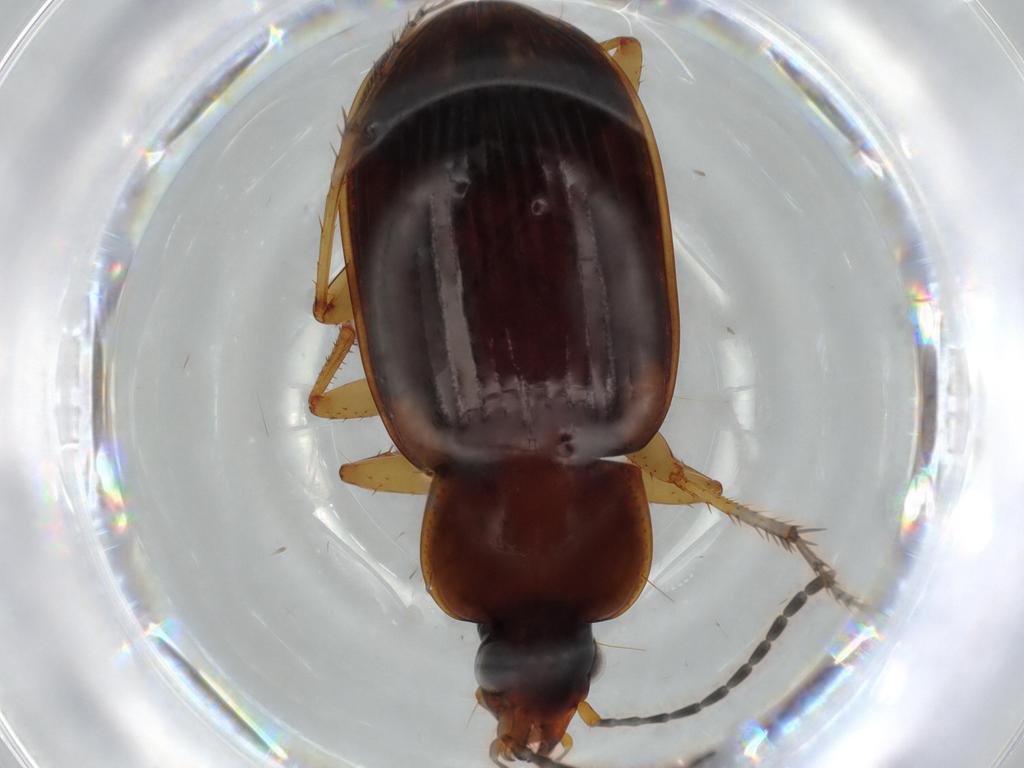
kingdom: Animalia
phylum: Arthropoda
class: Insecta
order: Coleoptera
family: Carabidae
